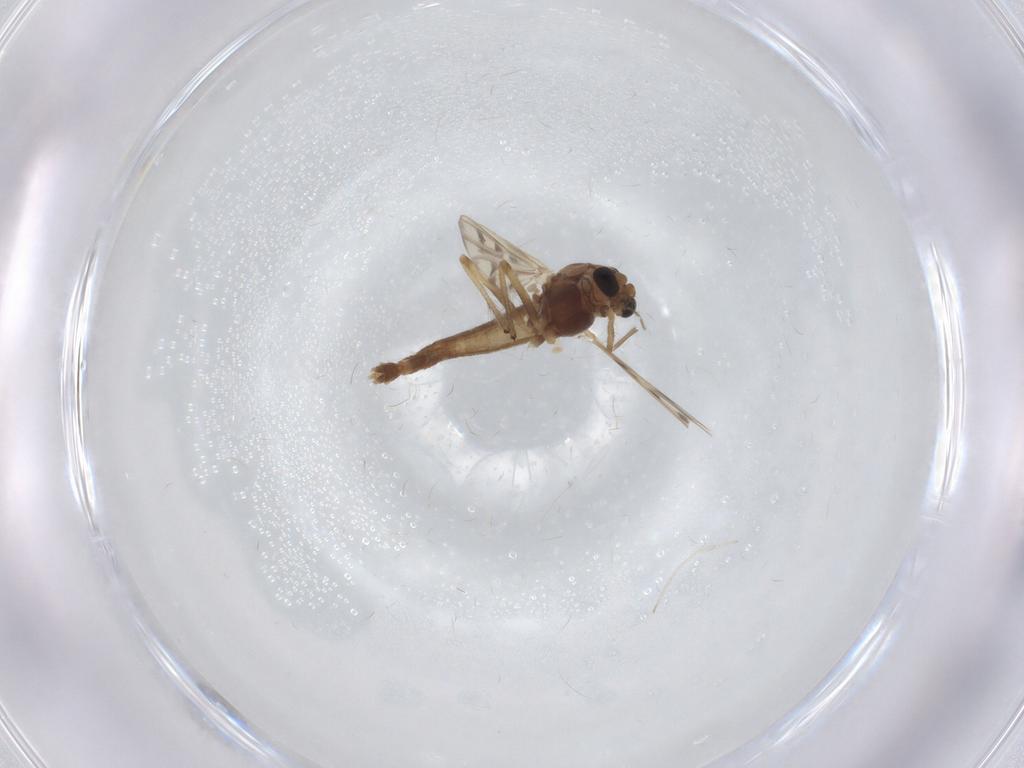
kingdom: Animalia
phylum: Arthropoda
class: Insecta
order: Diptera
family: Chironomidae
